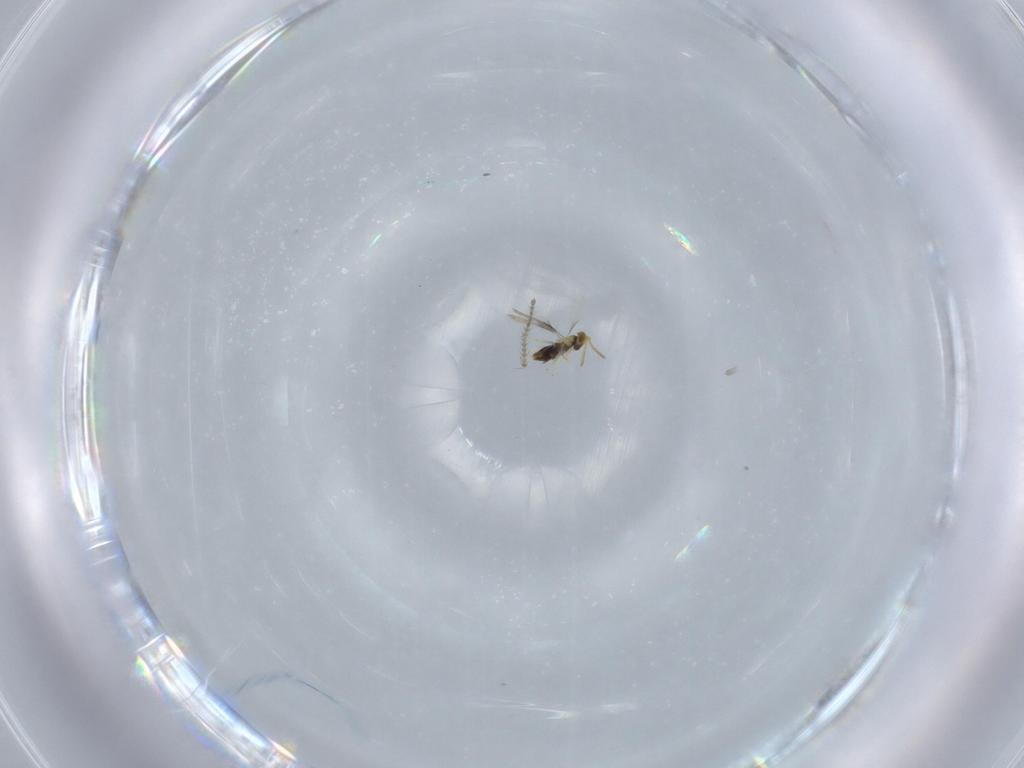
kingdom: Animalia
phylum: Arthropoda
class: Insecta
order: Hymenoptera
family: Aphelinidae
